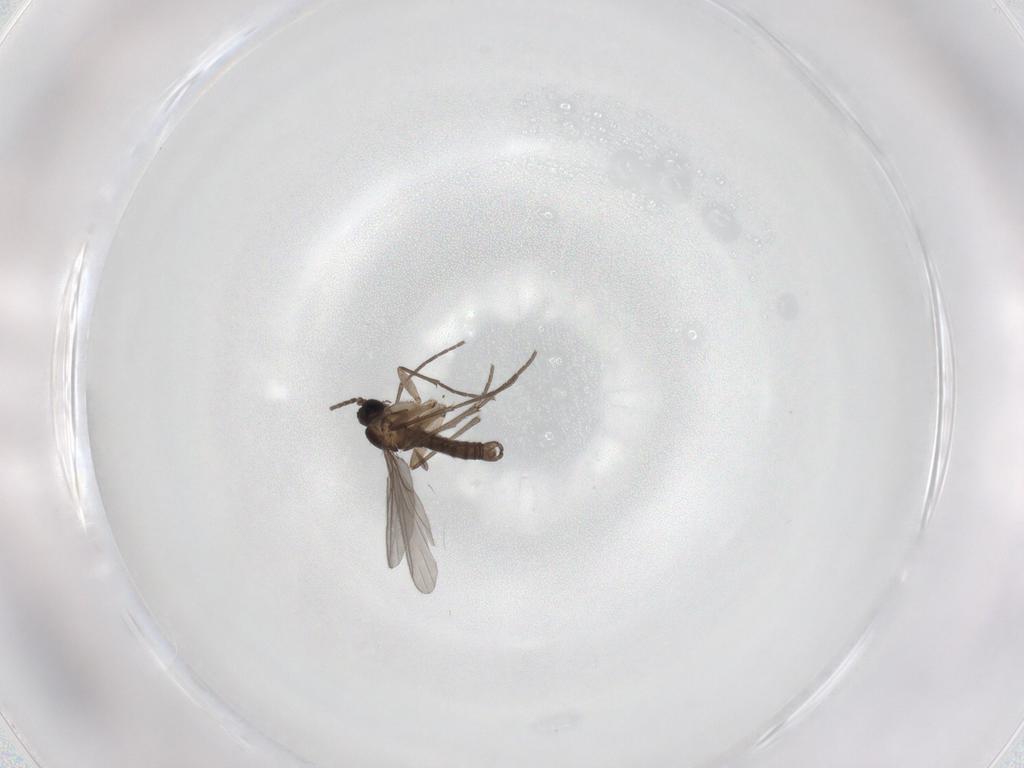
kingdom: Animalia
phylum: Arthropoda
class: Insecta
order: Diptera
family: Sciaridae
